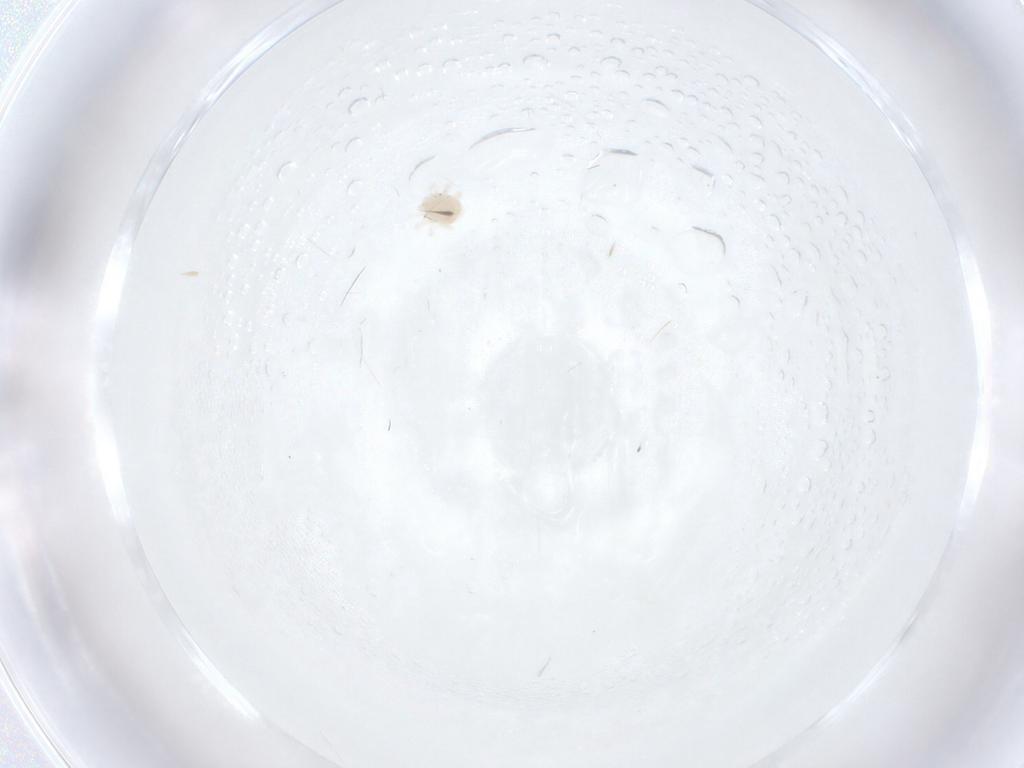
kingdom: Animalia
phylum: Arthropoda
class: Arachnida
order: Trombidiformes
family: Anystidae
